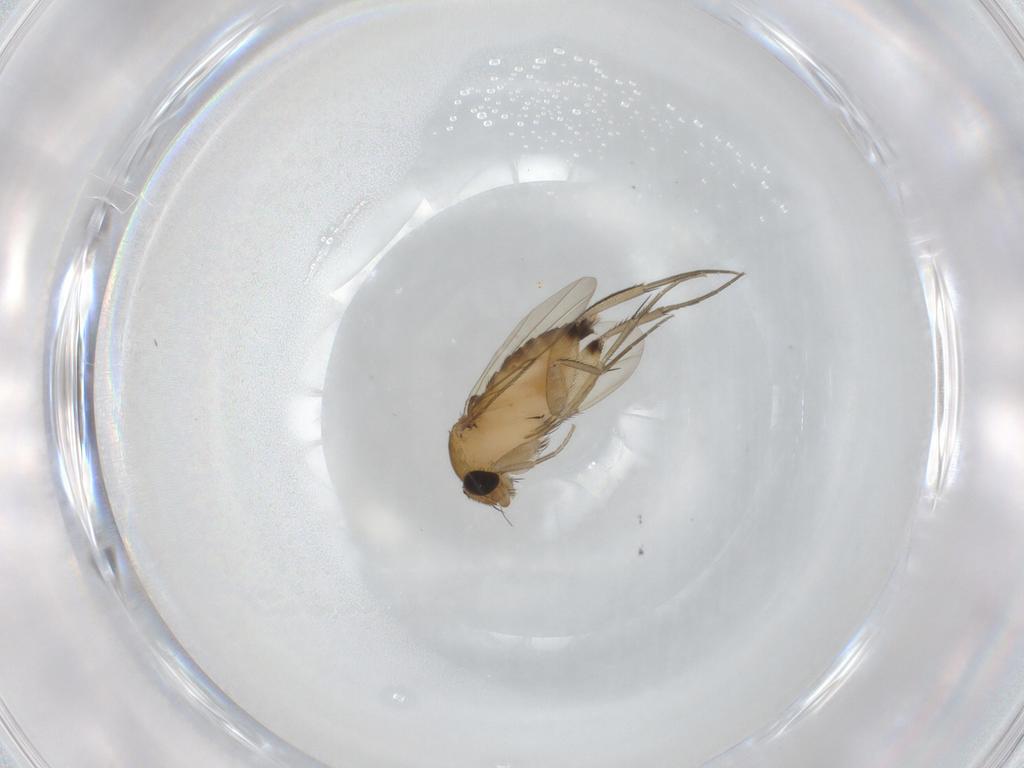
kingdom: Animalia
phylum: Arthropoda
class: Insecta
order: Diptera
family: Phoridae
